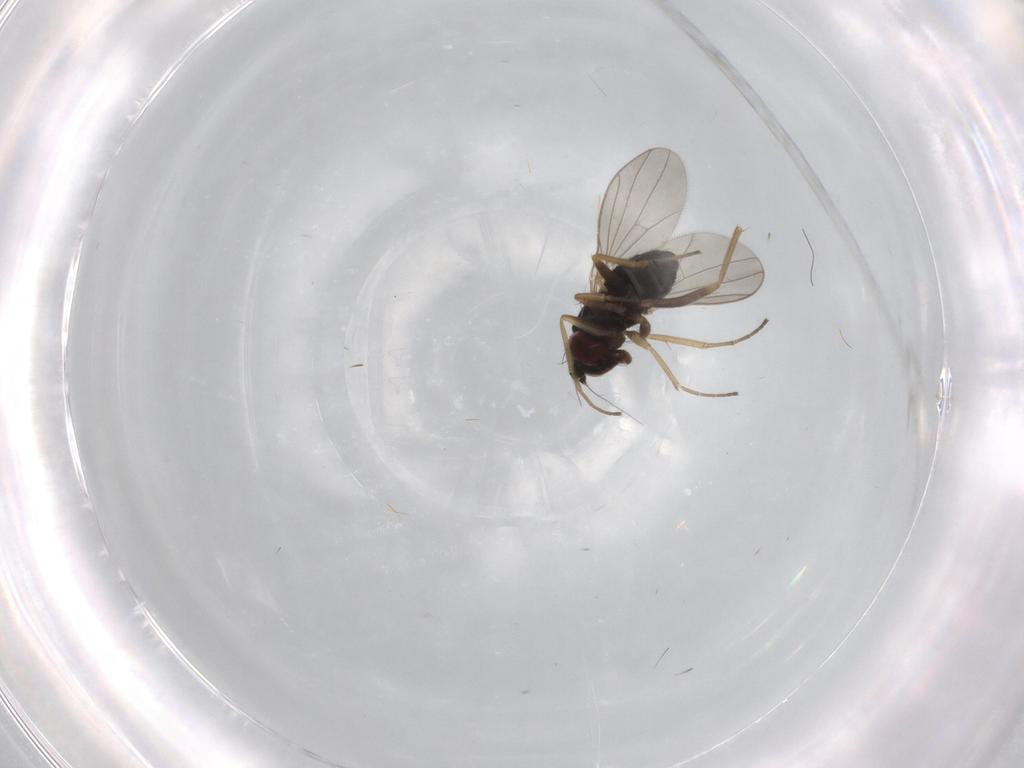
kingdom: Animalia
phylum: Arthropoda
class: Insecta
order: Diptera
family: Dolichopodidae
